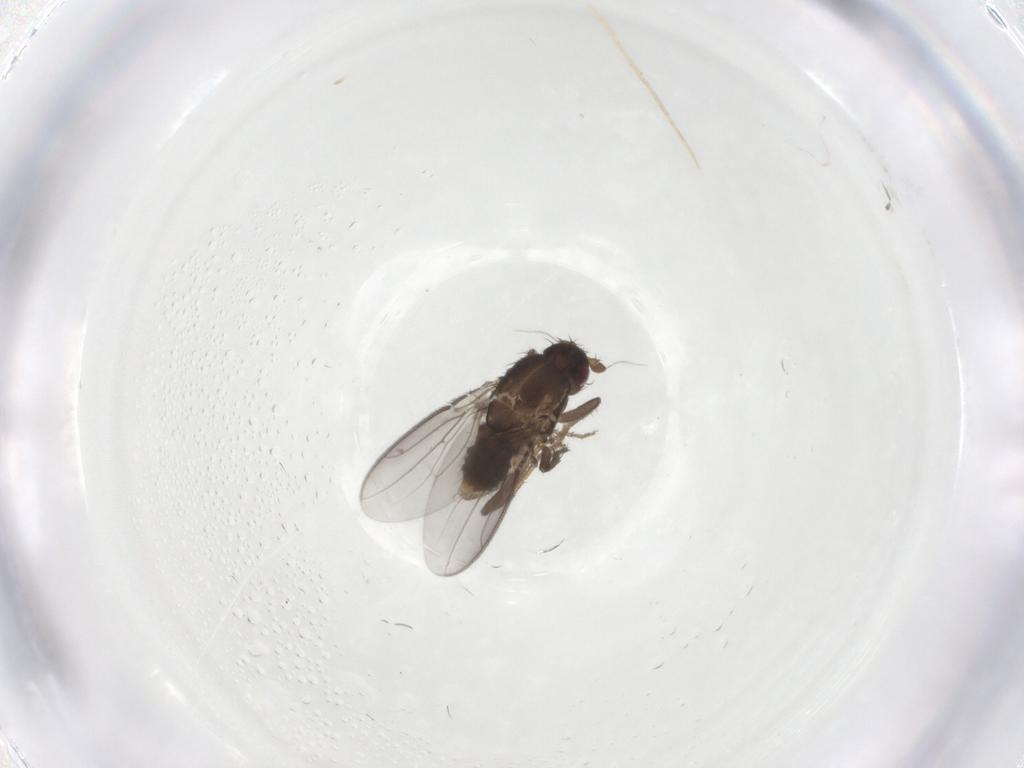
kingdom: Animalia
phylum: Arthropoda
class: Insecta
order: Diptera
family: Sphaeroceridae
